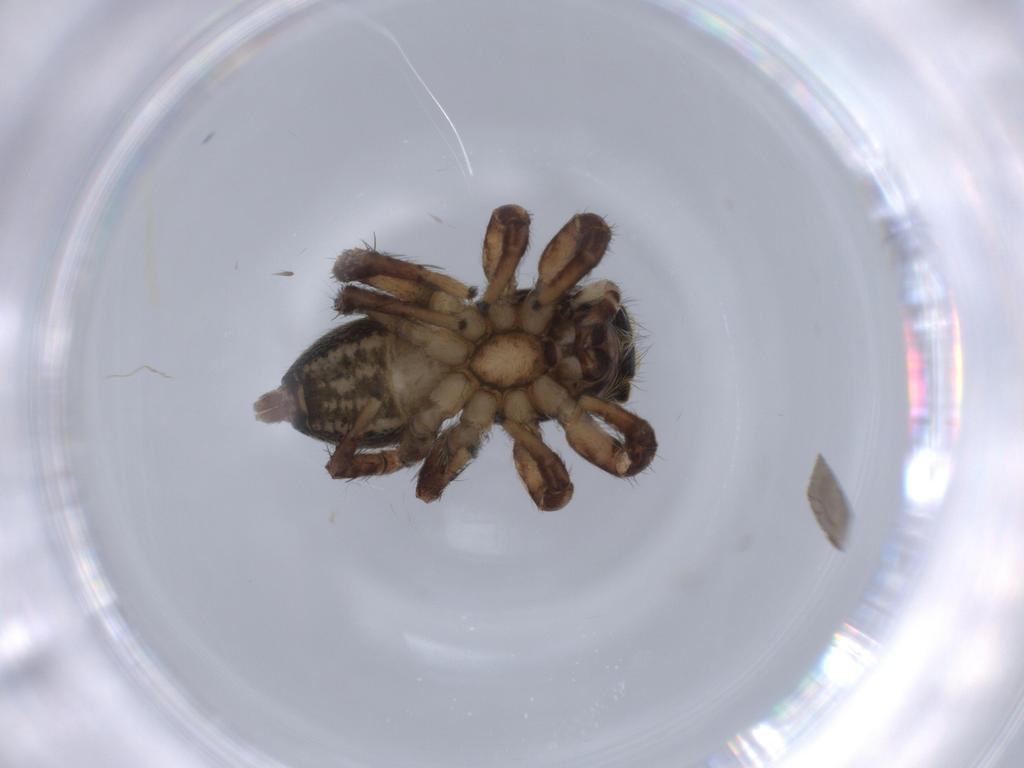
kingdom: Animalia
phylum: Arthropoda
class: Arachnida
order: Araneae
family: Salticidae
